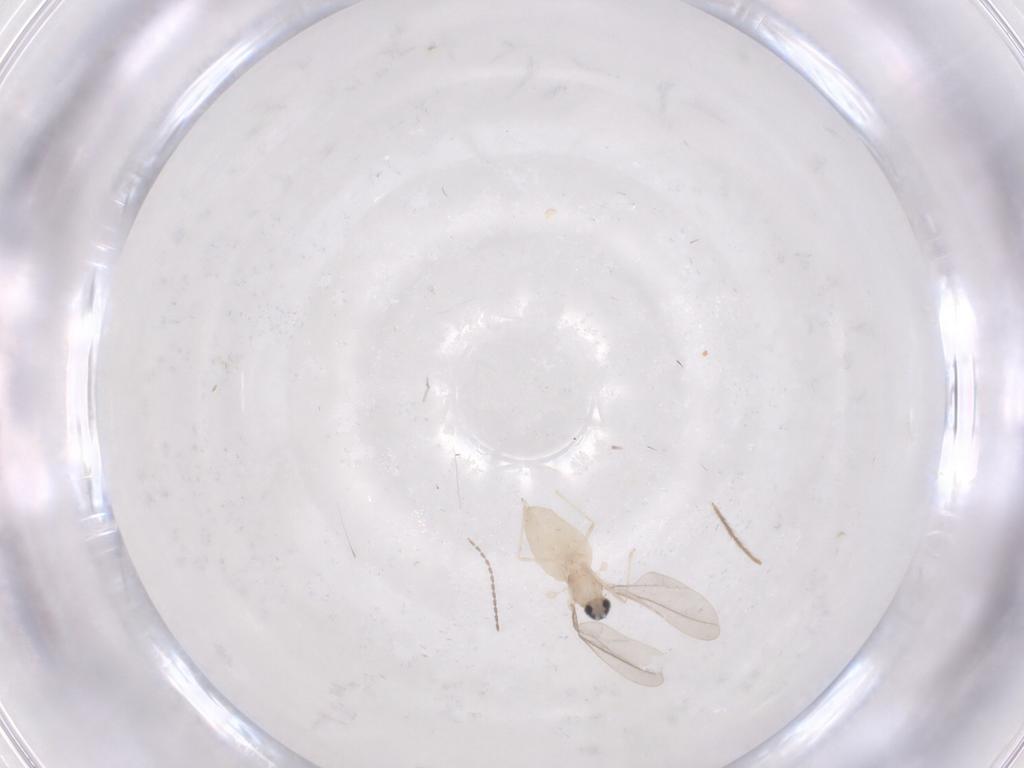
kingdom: Animalia
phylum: Arthropoda
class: Insecta
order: Diptera
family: Cecidomyiidae
